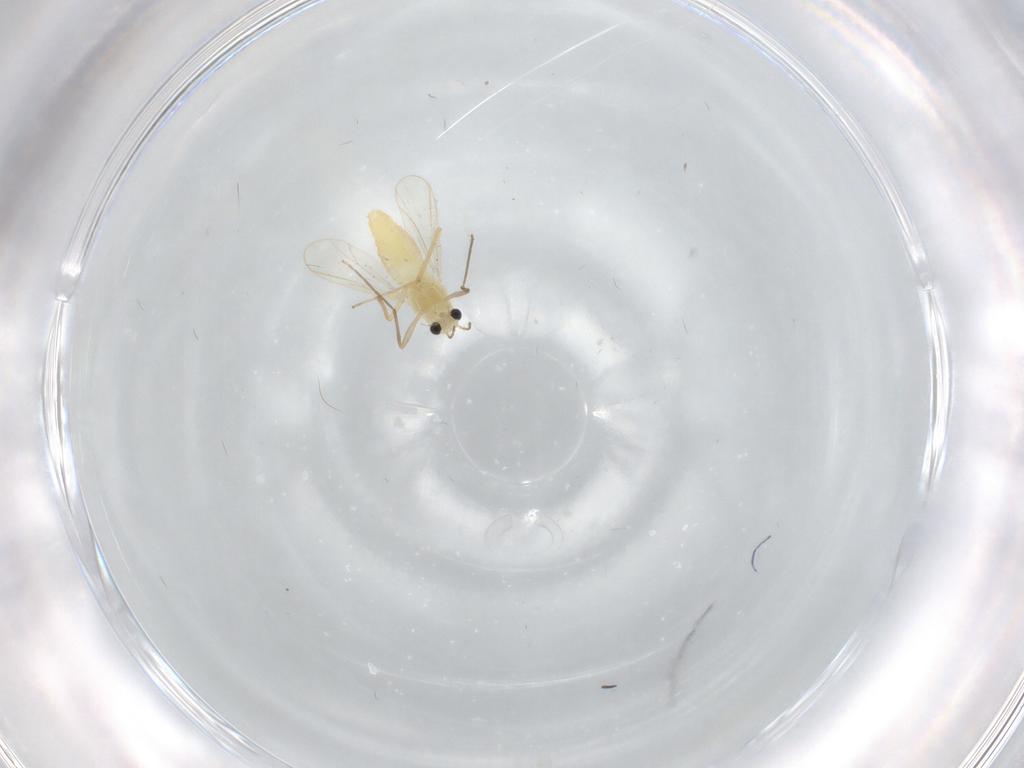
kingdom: Animalia
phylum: Arthropoda
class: Insecta
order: Diptera
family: Chironomidae
